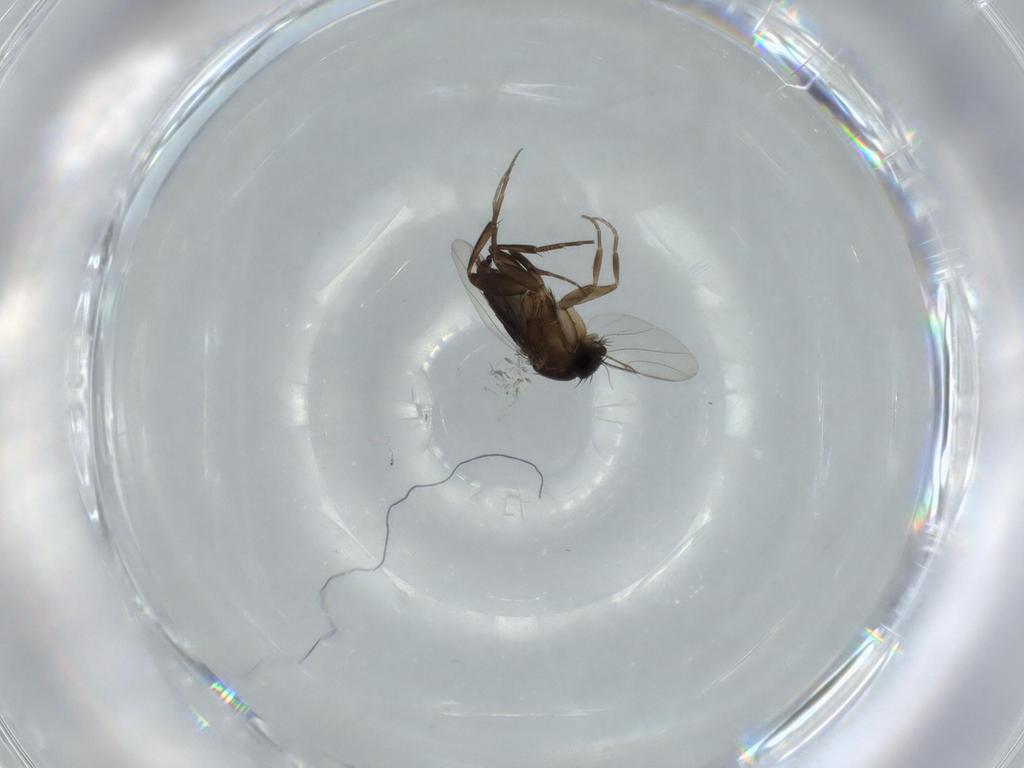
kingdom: Animalia
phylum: Arthropoda
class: Insecta
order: Diptera
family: Phoridae
